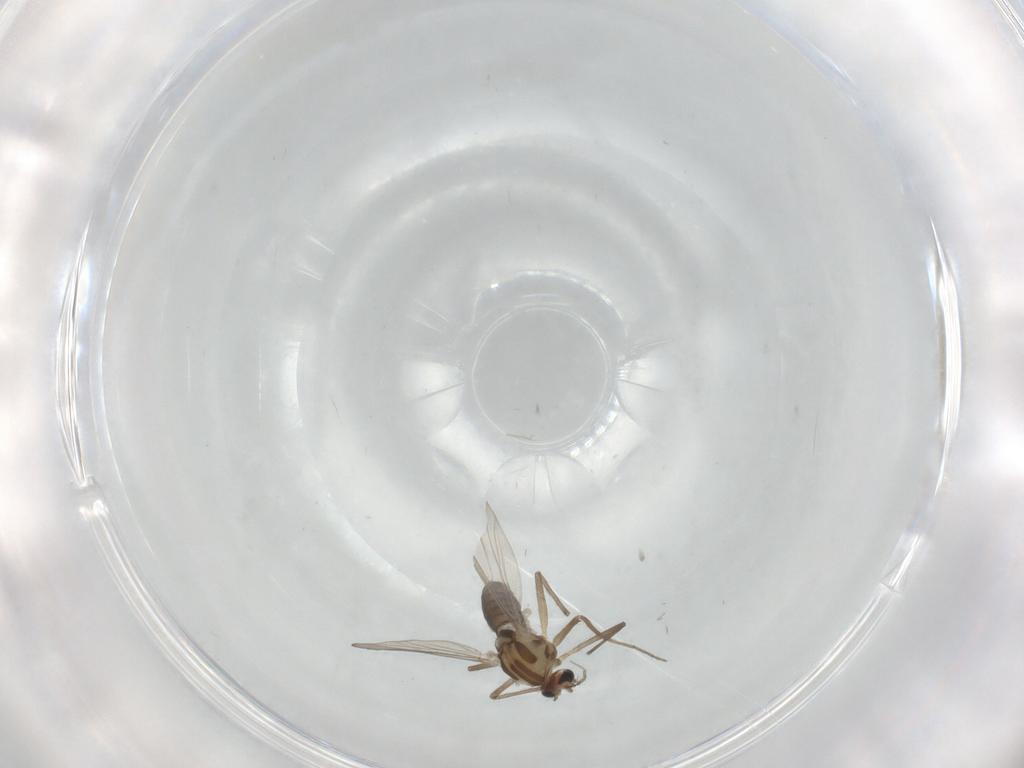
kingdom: Animalia
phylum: Arthropoda
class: Insecta
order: Diptera
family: Chironomidae
